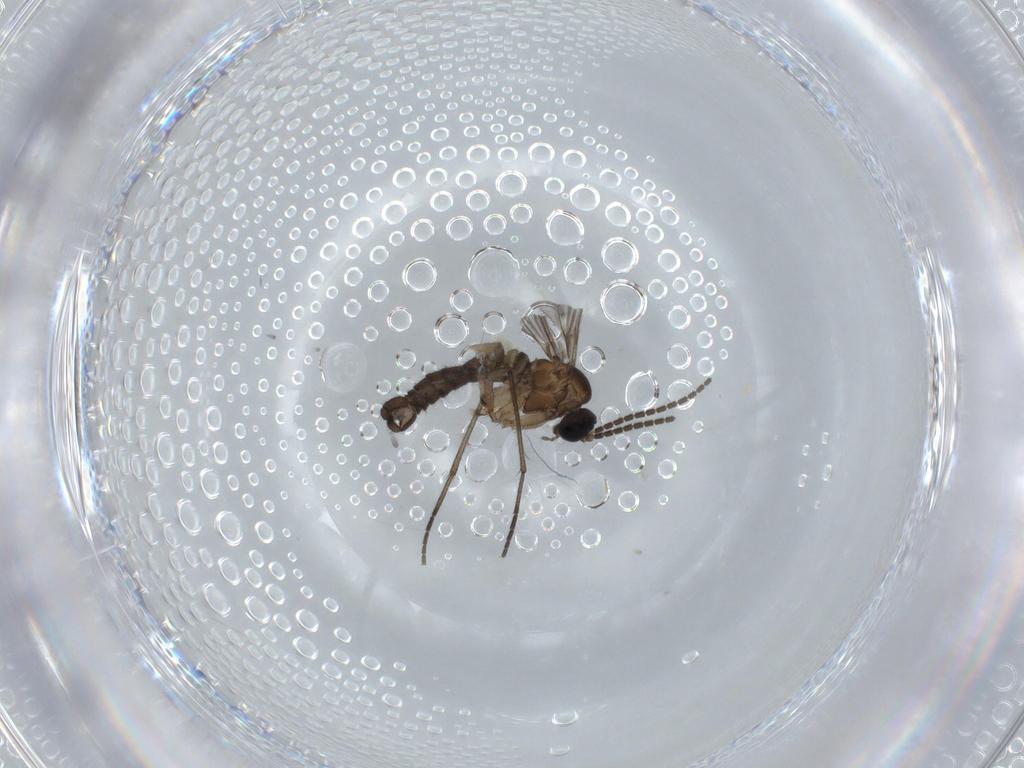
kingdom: Animalia
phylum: Arthropoda
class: Insecta
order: Diptera
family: Sciaridae
